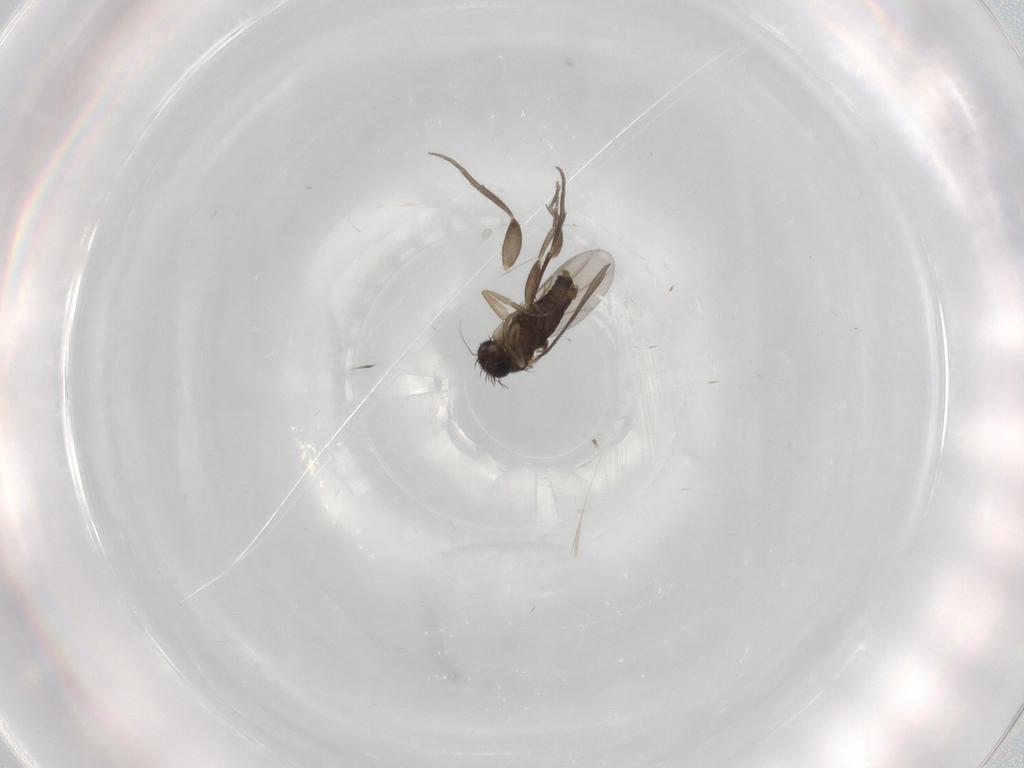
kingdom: Animalia
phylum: Arthropoda
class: Insecta
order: Diptera
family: Phoridae
